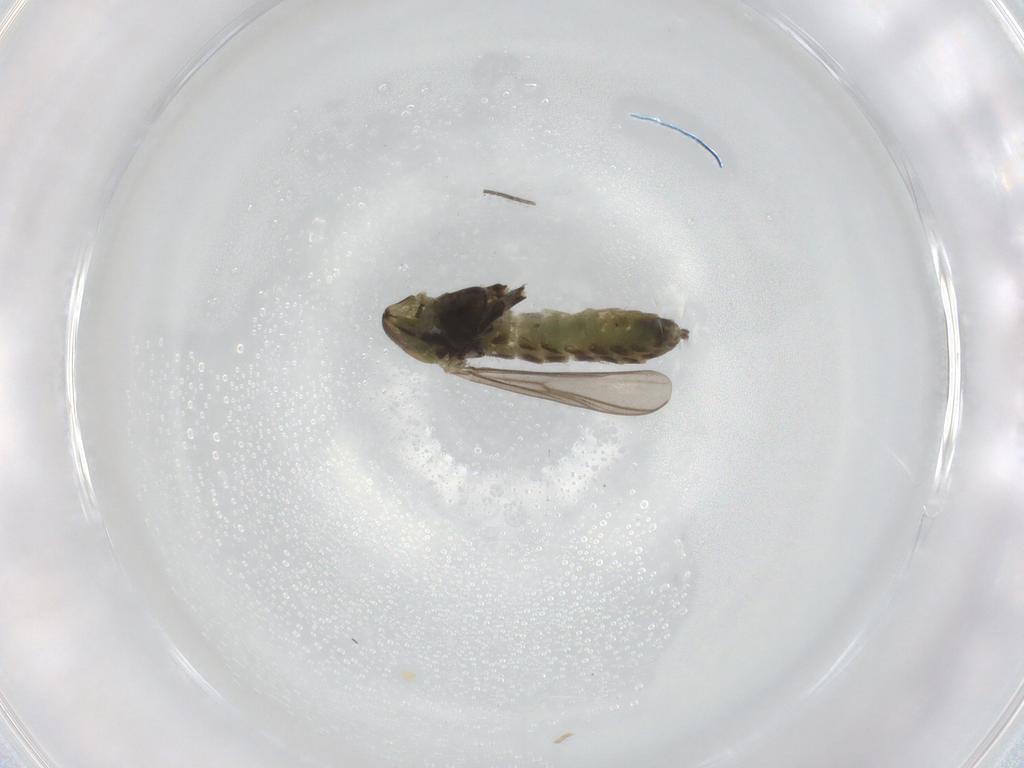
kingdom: Animalia
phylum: Arthropoda
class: Insecta
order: Diptera
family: Chironomidae
